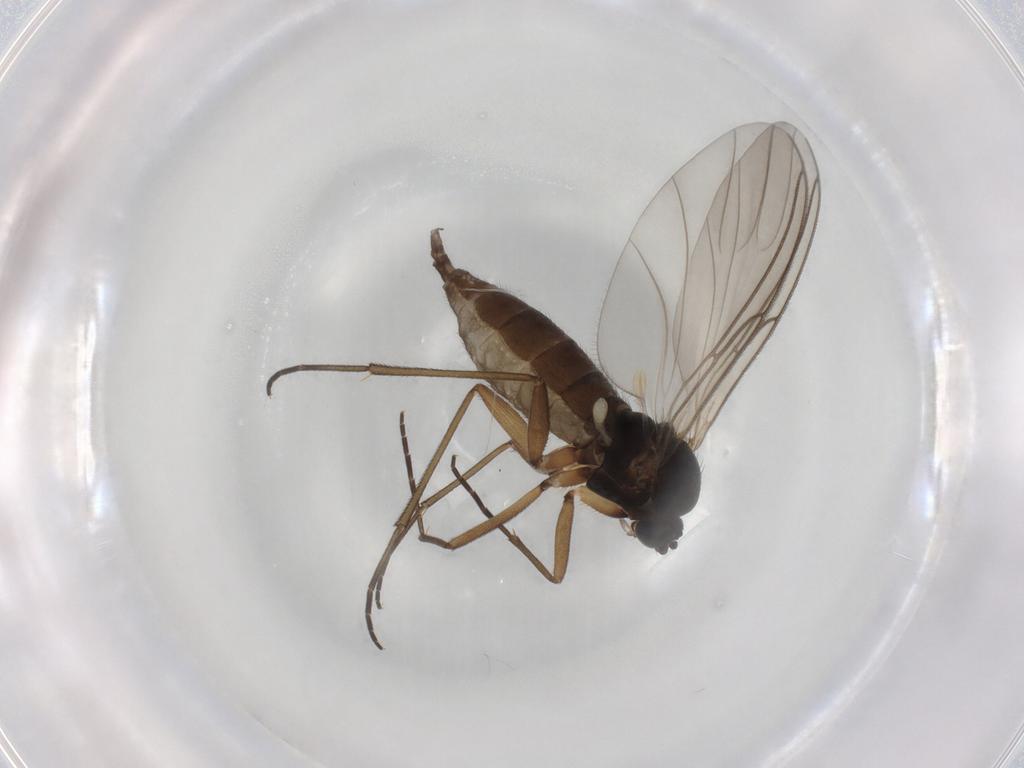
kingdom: Animalia
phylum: Arthropoda
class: Insecta
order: Diptera
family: Sciaridae
